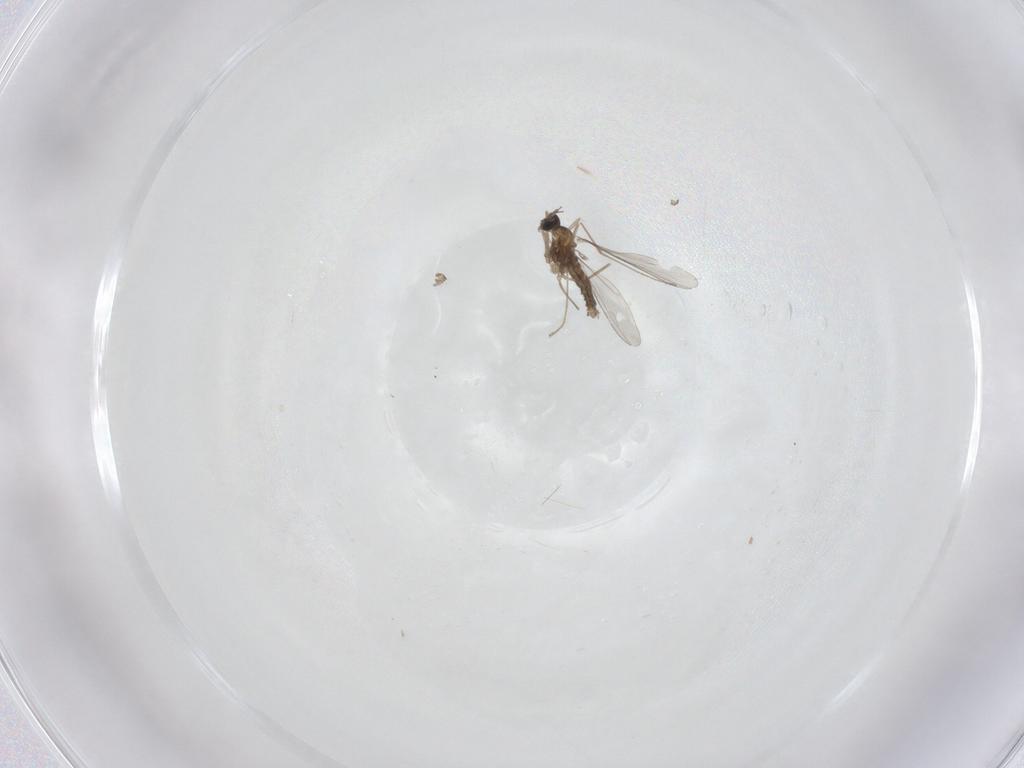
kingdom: Animalia
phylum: Arthropoda
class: Insecta
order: Diptera
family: Cecidomyiidae
